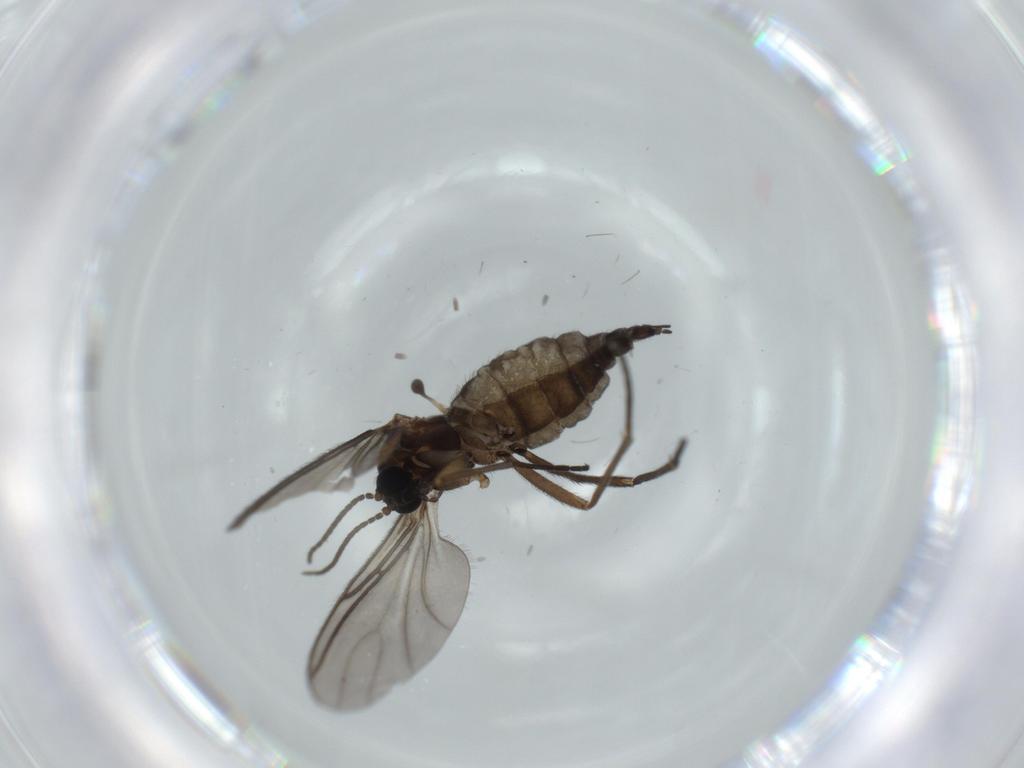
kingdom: Animalia
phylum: Arthropoda
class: Insecta
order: Diptera
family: Sciaridae
